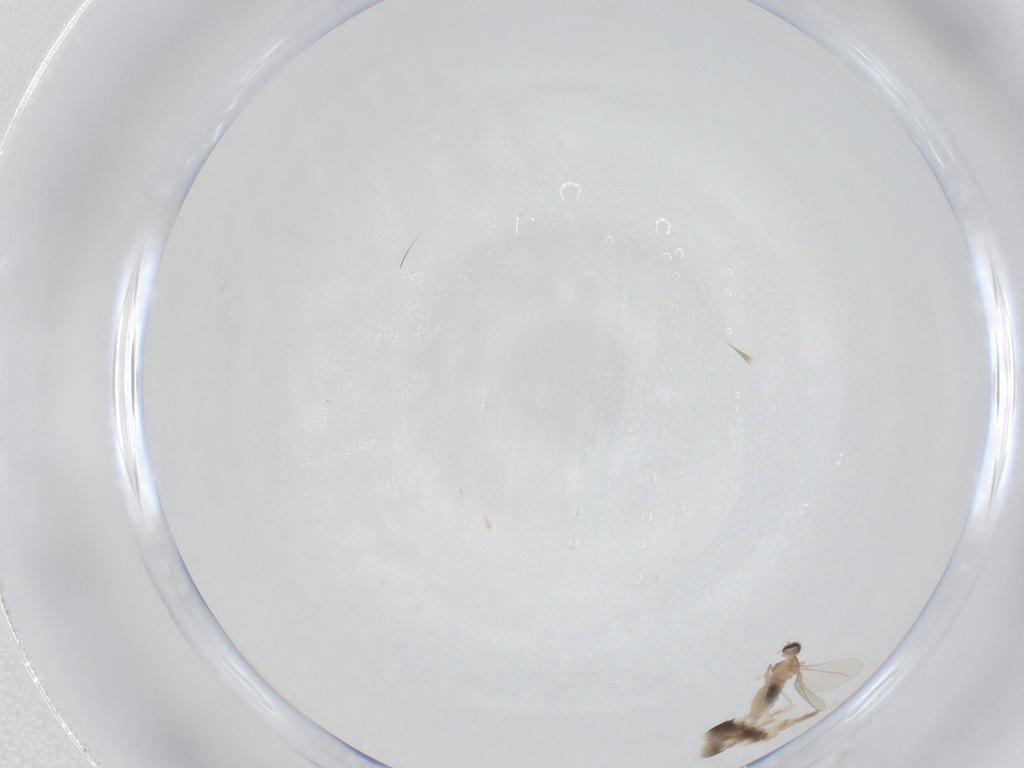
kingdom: Animalia
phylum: Arthropoda
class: Insecta
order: Diptera
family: Cecidomyiidae
